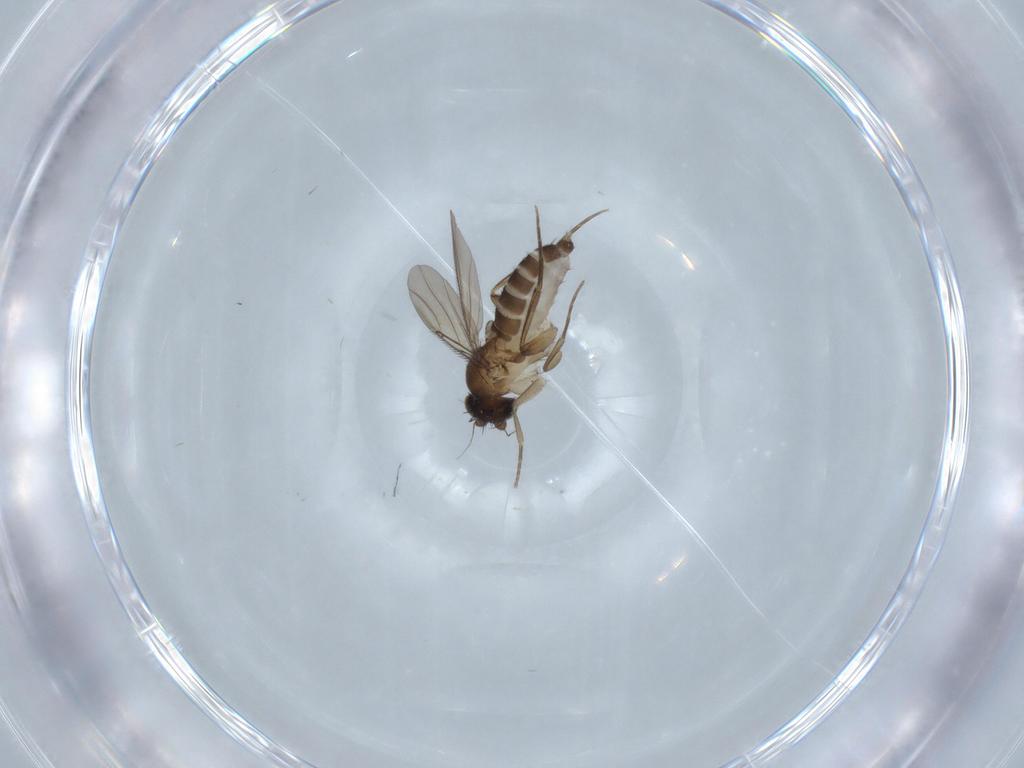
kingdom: Animalia
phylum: Arthropoda
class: Insecta
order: Diptera
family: Phoridae
